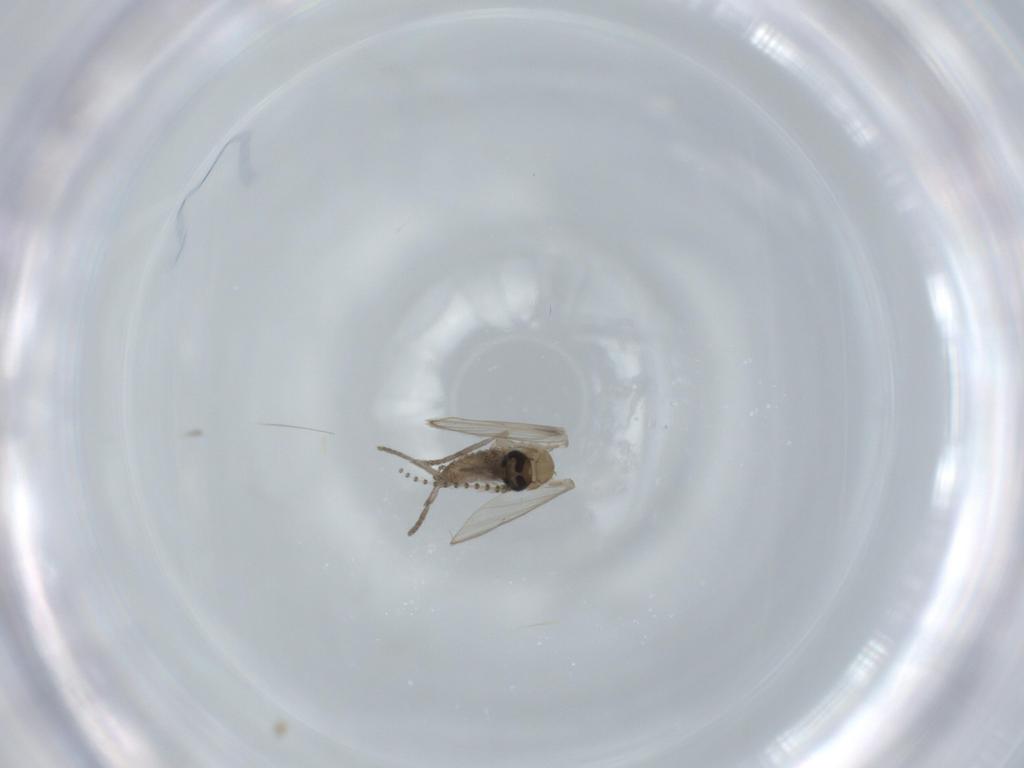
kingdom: Animalia
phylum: Arthropoda
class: Insecta
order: Diptera
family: Psychodidae
